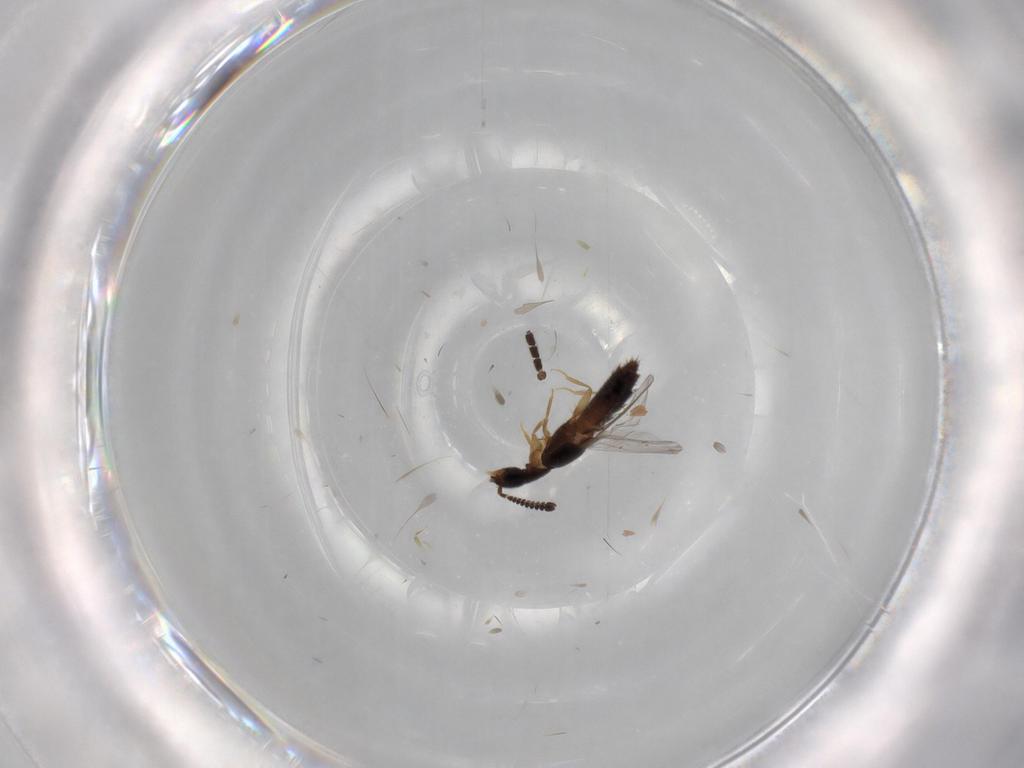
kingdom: Animalia
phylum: Arthropoda
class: Insecta
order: Coleoptera
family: Staphylinidae
